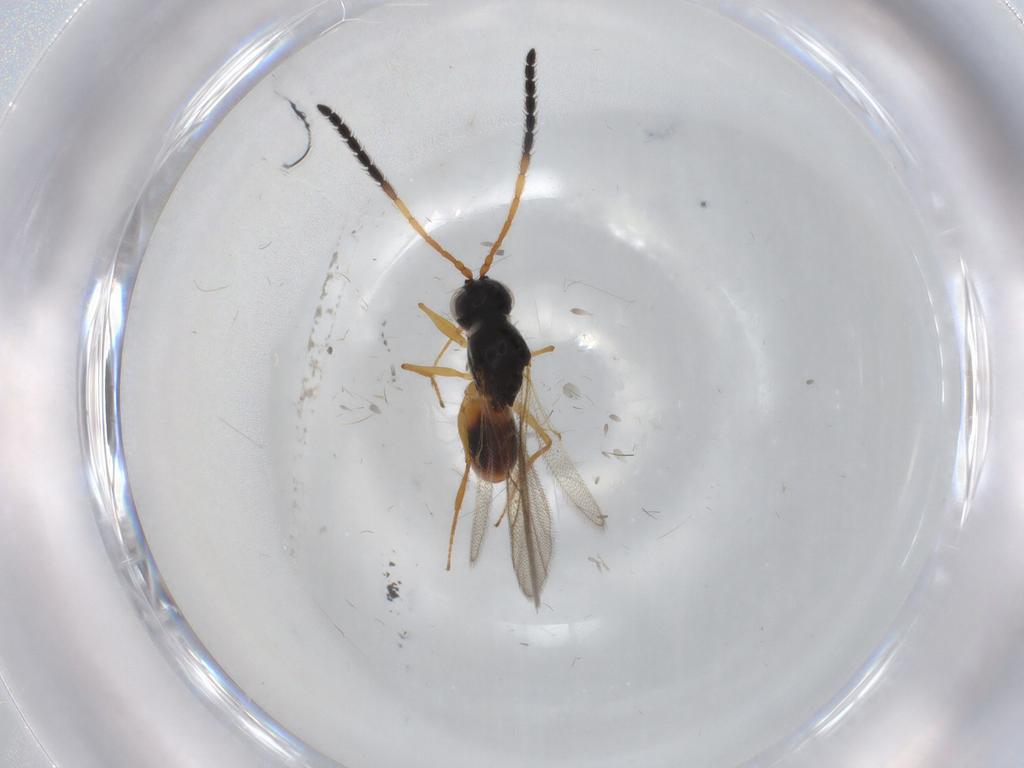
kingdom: Animalia
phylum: Arthropoda
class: Insecta
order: Hymenoptera
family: Figitidae
